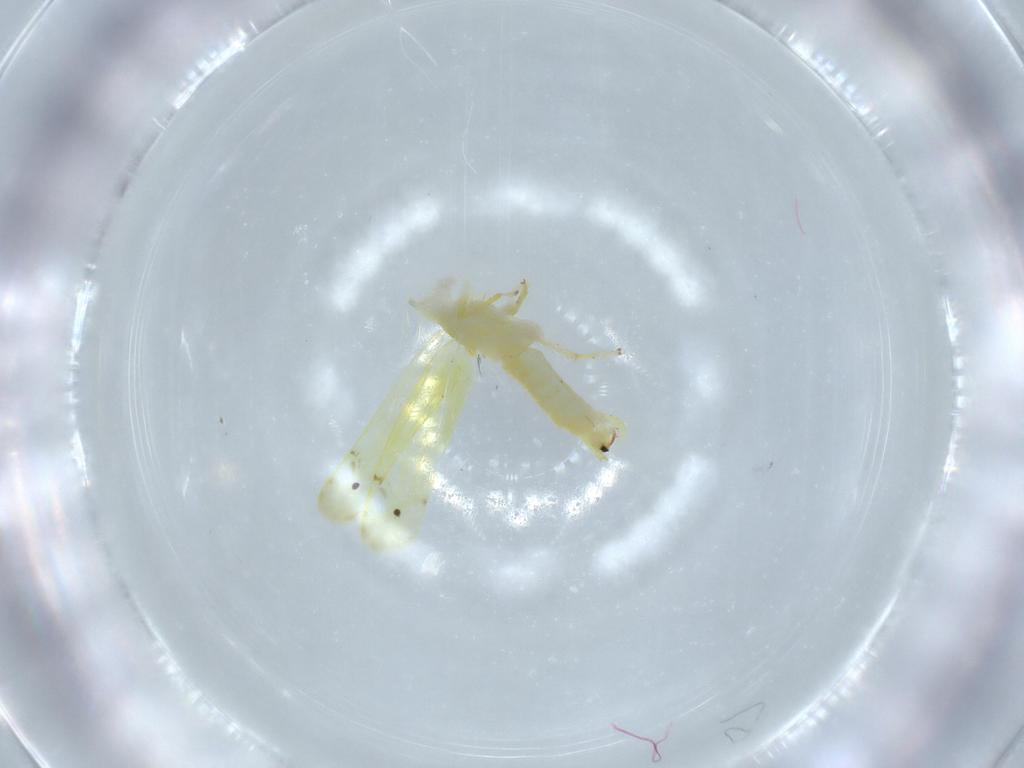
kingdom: Animalia
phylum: Arthropoda
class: Insecta
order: Hemiptera
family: Cicadellidae
